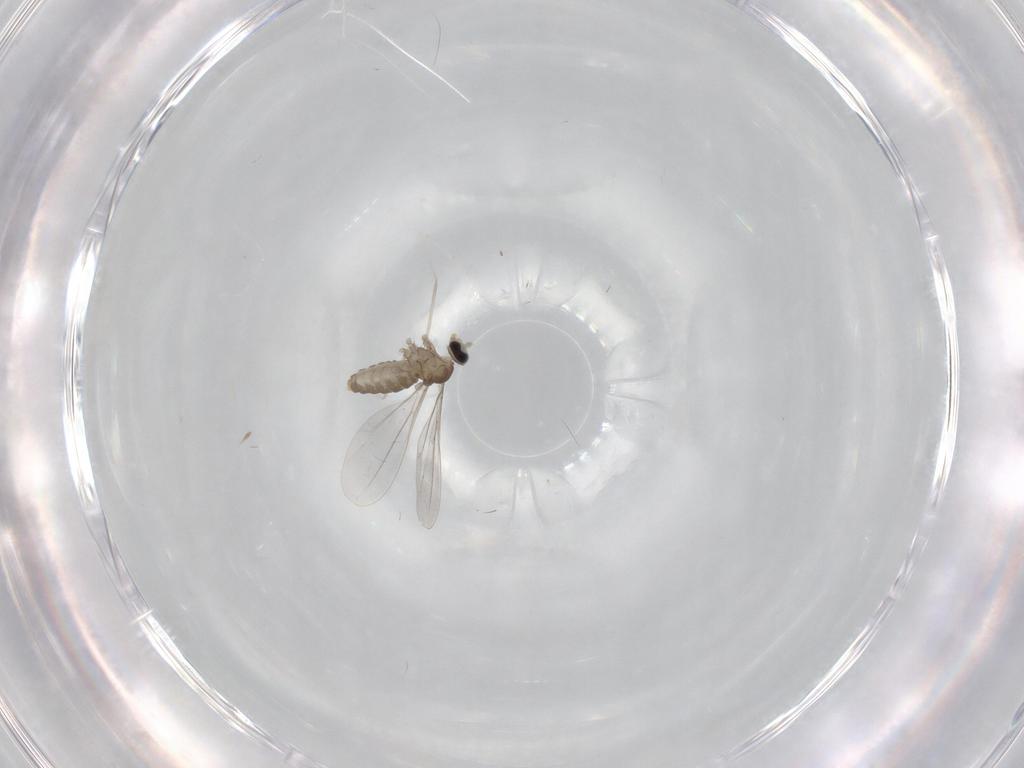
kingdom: Animalia
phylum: Arthropoda
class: Insecta
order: Diptera
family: Cecidomyiidae
